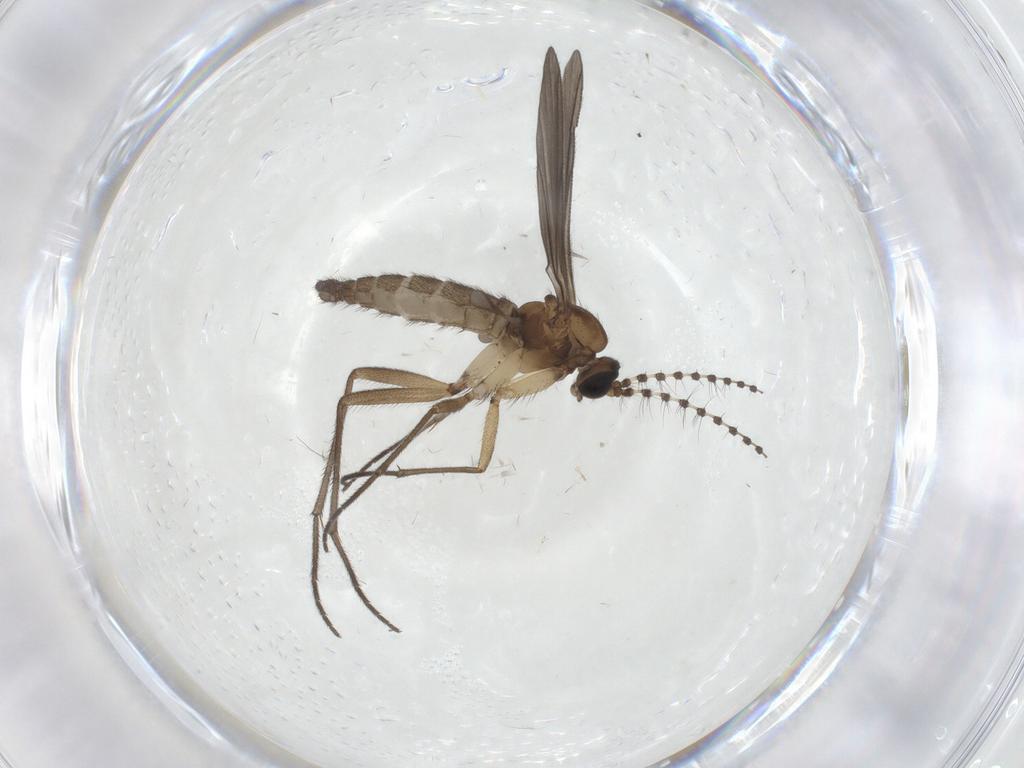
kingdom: Animalia
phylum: Arthropoda
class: Insecta
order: Diptera
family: Sciaridae
